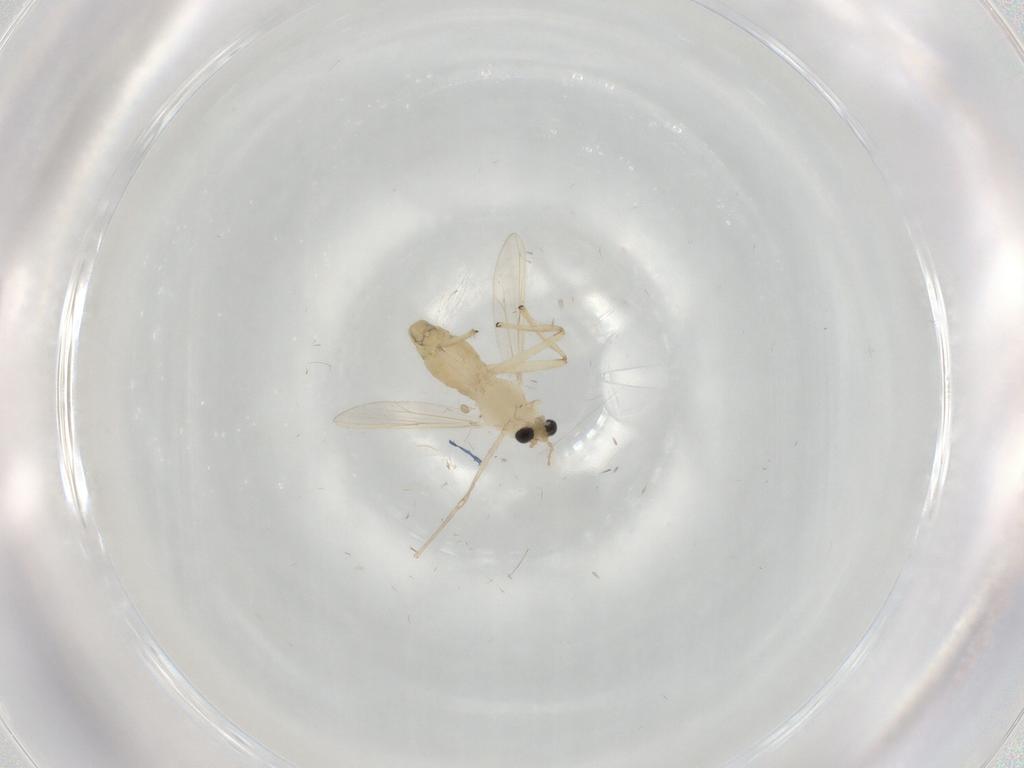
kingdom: Animalia
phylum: Arthropoda
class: Insecta
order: Diptera
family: Chironomidae
